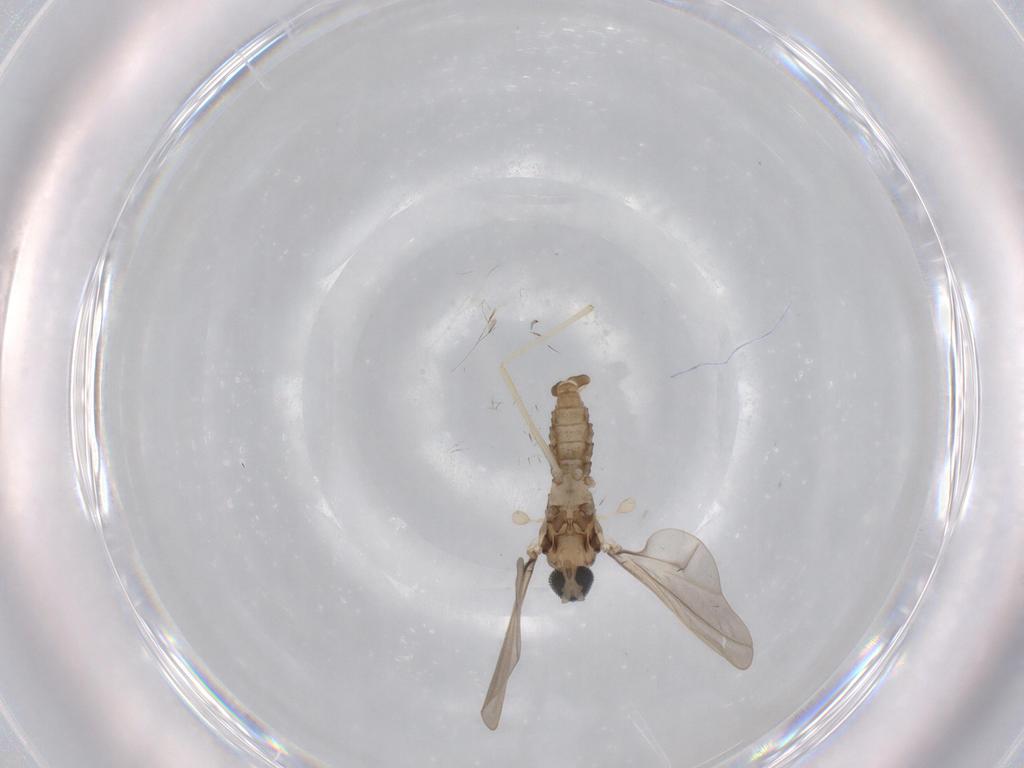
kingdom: Animalia
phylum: Arthropoda
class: Insecta
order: Diptera
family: Cecidomyiidae
